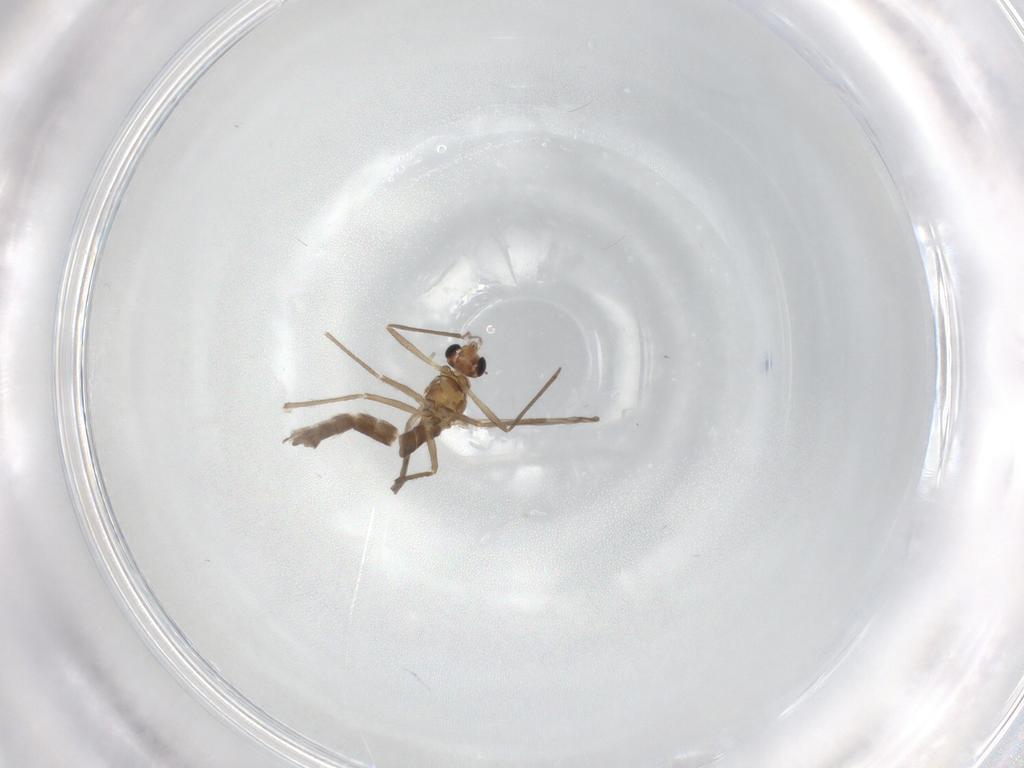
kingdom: Animalia
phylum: Arthropoda
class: Insecta
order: Diptera
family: Chironomidae
